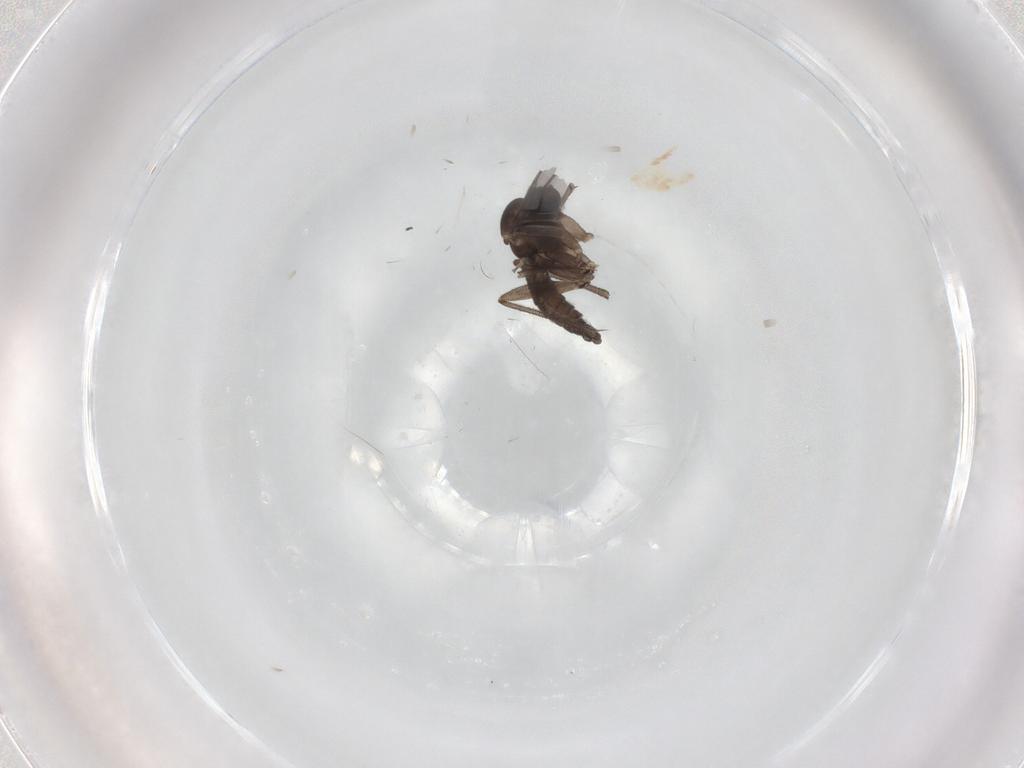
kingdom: Animalia
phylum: Arthropoda
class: Insecta
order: Diptera
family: Sciaridae
